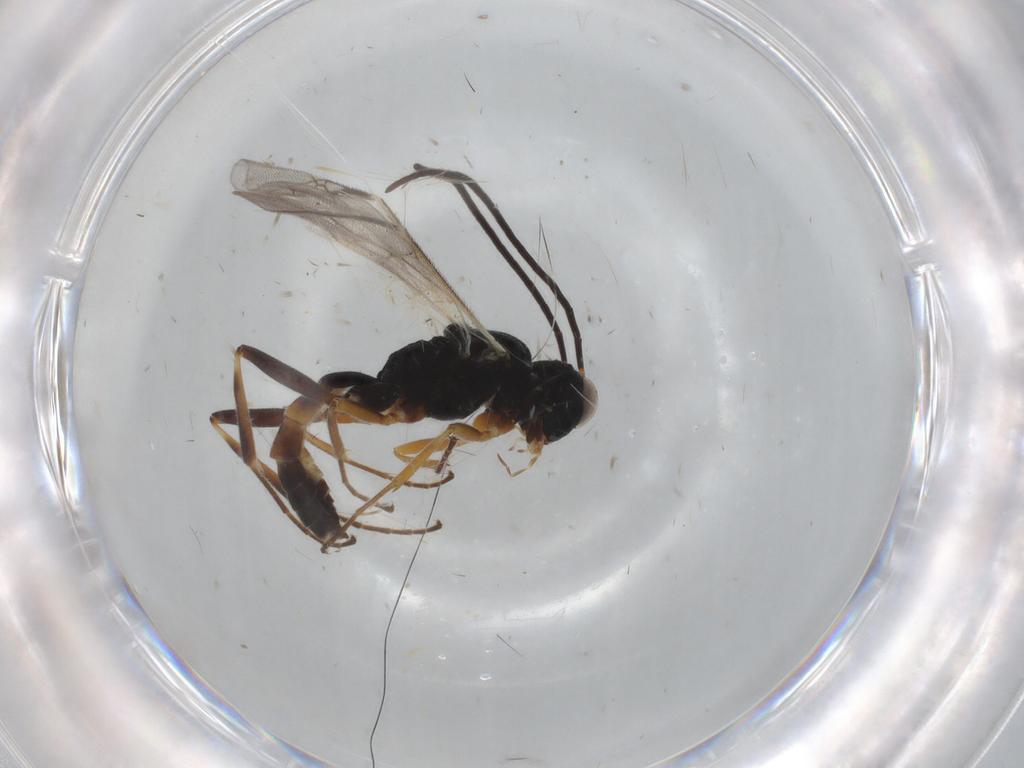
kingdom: Animalia
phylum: Arthropoda
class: Insecta
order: Hymenoptera
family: Ichneumonidae
